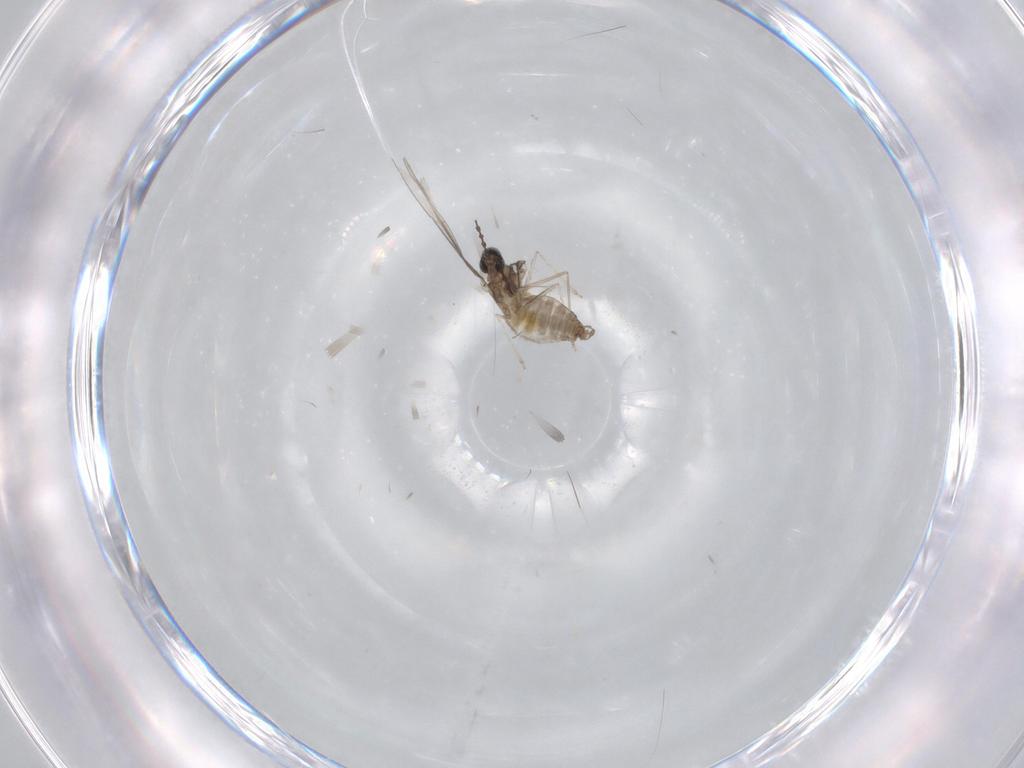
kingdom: Animalia
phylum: Arthropoda
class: Insecta
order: Diptera
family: Cecidomyiidae
